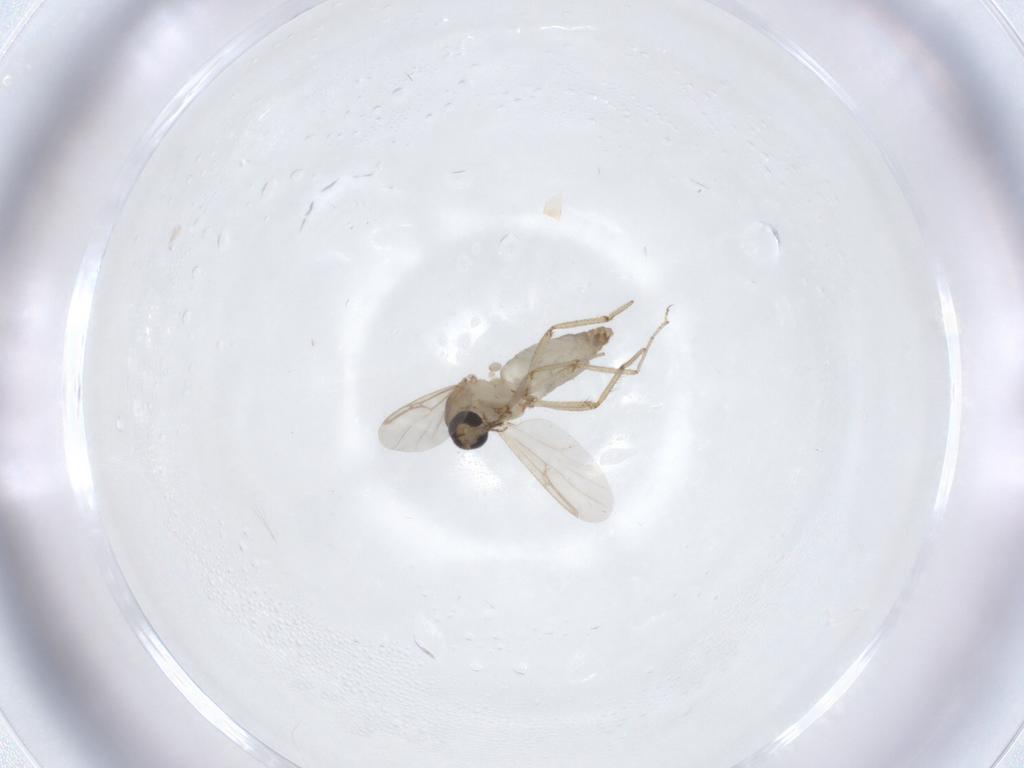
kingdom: Animalia
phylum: Arthropoda
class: Insecta
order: Diptera
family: Ceratopogonidae
